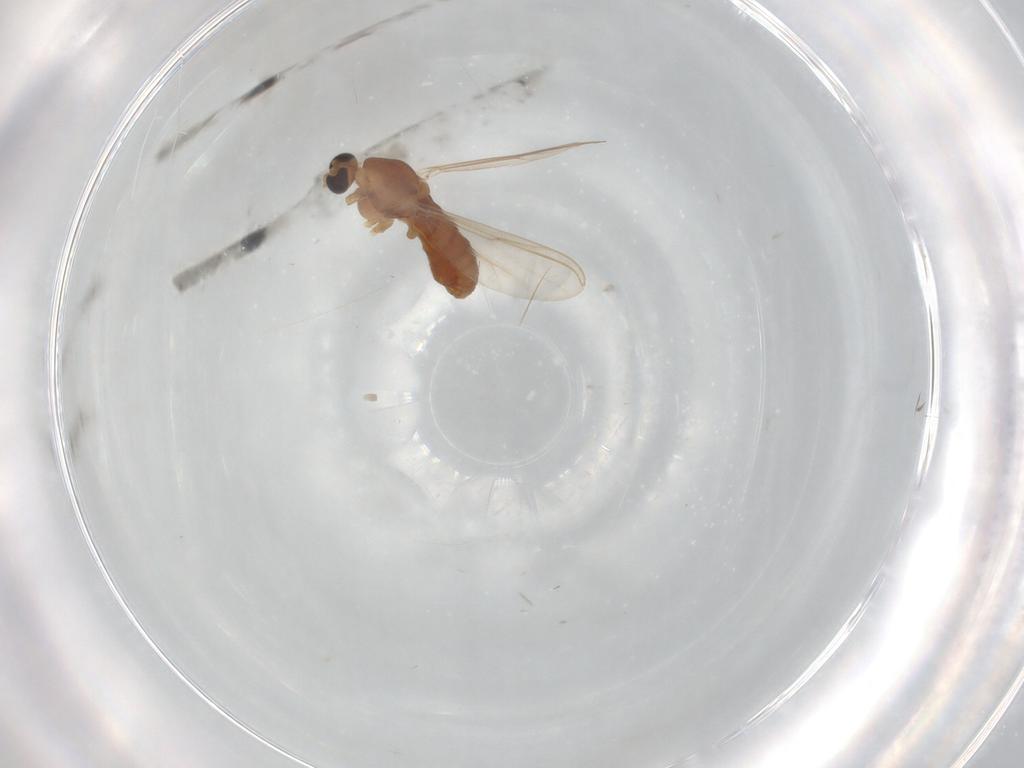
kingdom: Animalia
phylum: Arthropoda
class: Insecta
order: Diptera
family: Chironomidae
